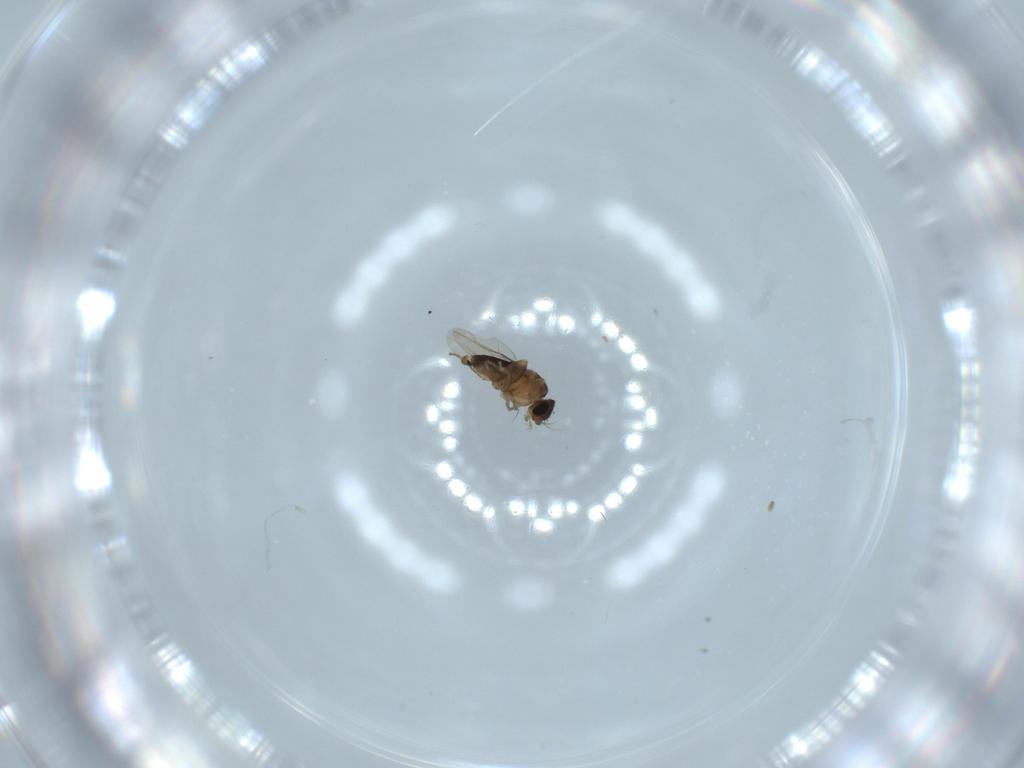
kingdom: Animalia
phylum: Arthropoda
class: Insecta
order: Diptera
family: Phoridae
